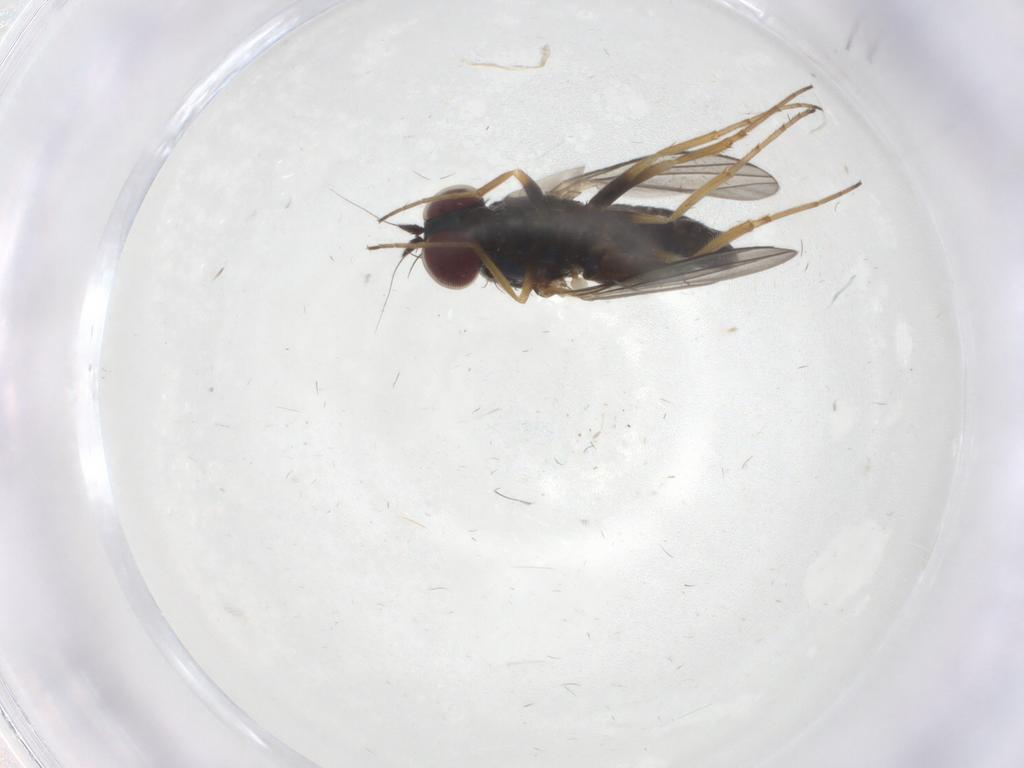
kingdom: Animalia
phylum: Arthropoda
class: Insecta
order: Diptera
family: Dolichopodidae
